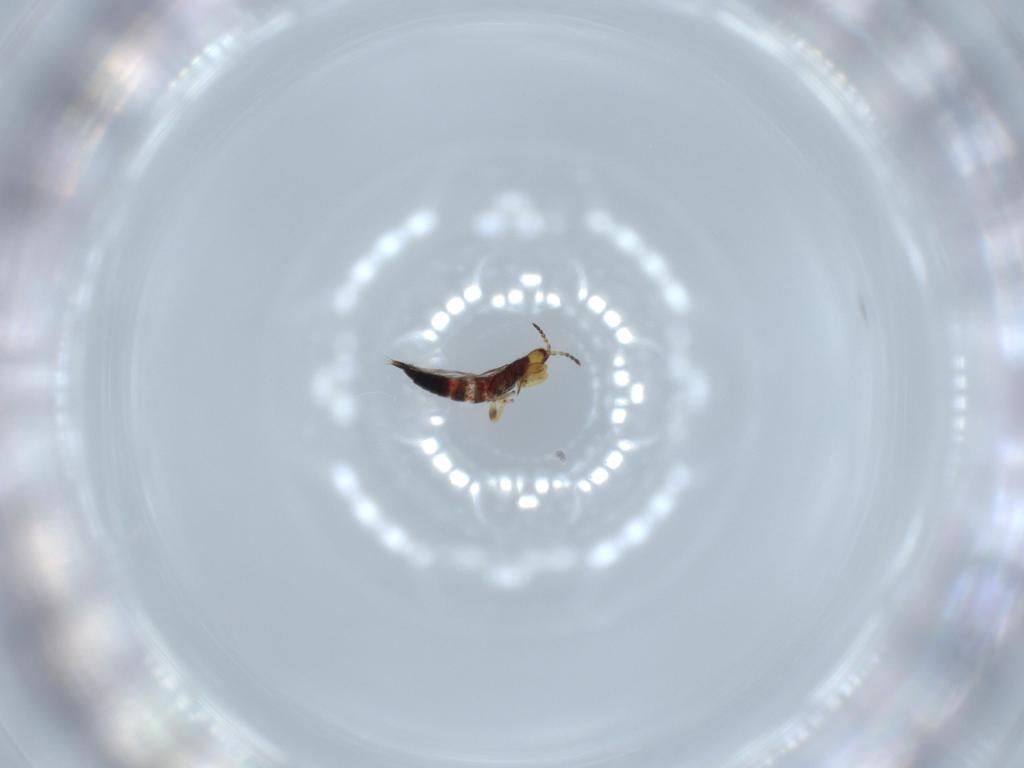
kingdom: Animalia
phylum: Arthropoda
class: Insecta
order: Thysanoptera
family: Phlaeothripidae
